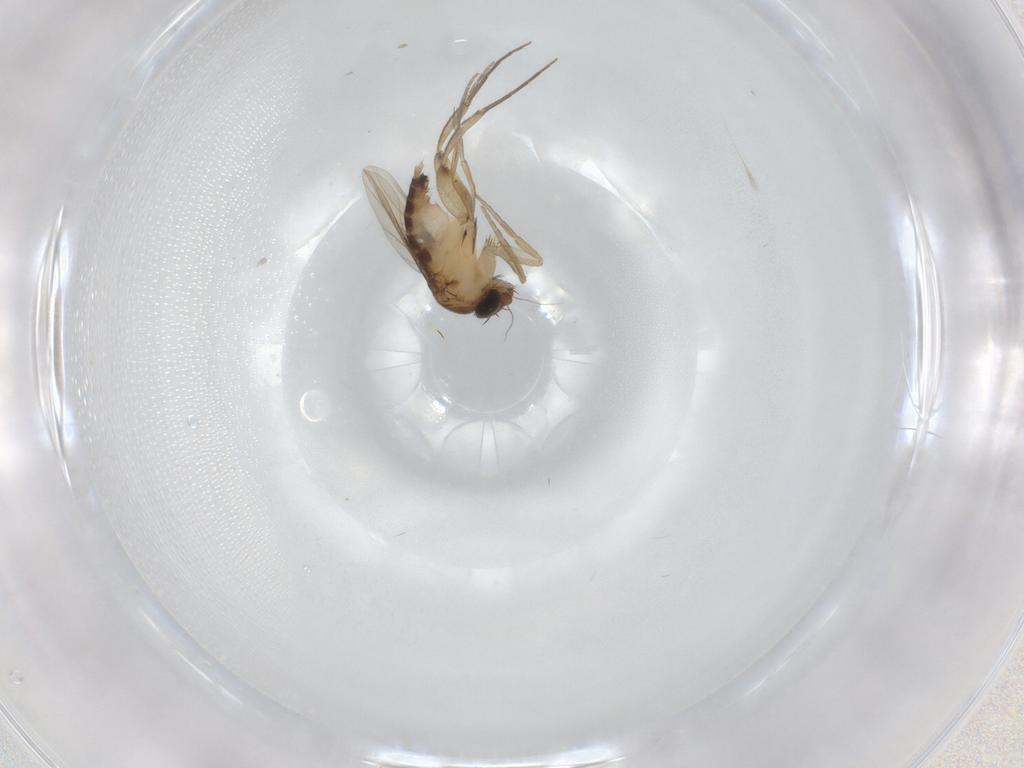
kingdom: Animalia
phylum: Arthropoda
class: Insecta
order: Diptera
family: Phoridae
